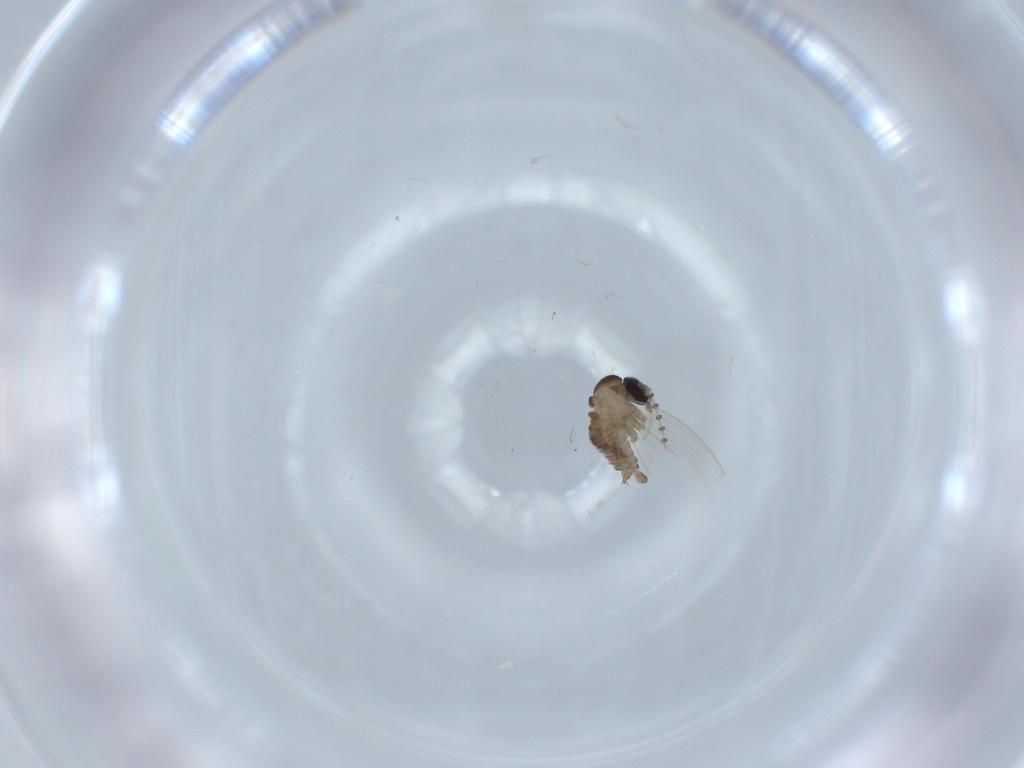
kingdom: Animalia
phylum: Arthropoda
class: Insecta
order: Diptera
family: Psychodidae
